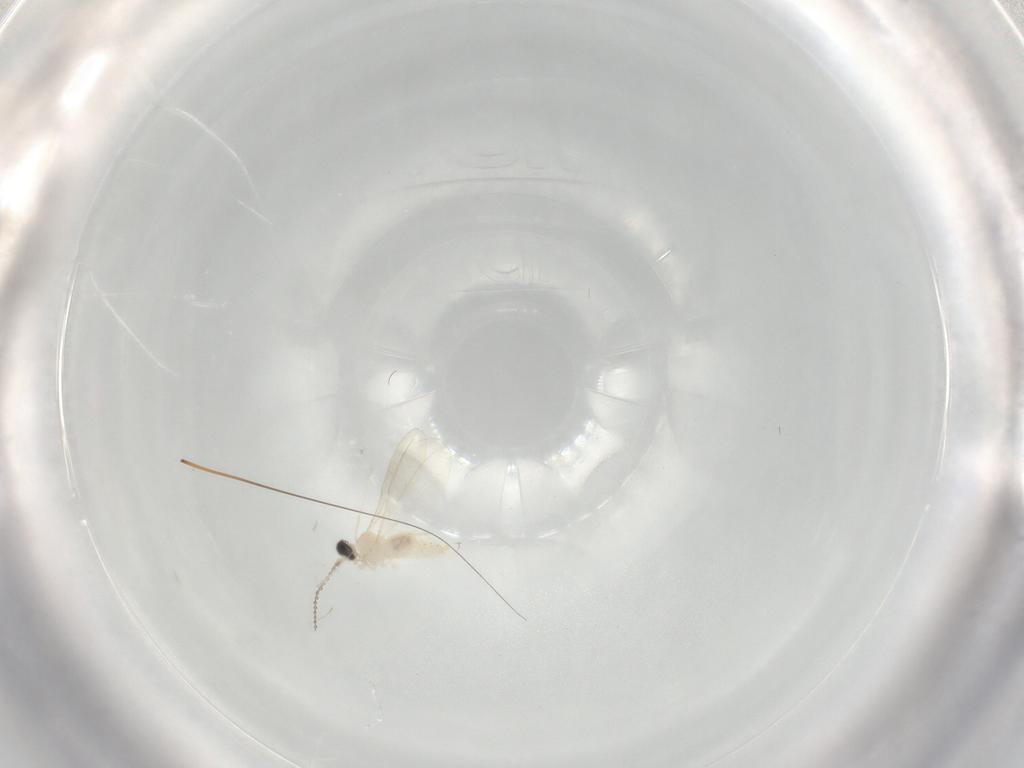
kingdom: Animalia
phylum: Arthropoda
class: Insecta
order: Diptera
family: Cecidomyiidae
